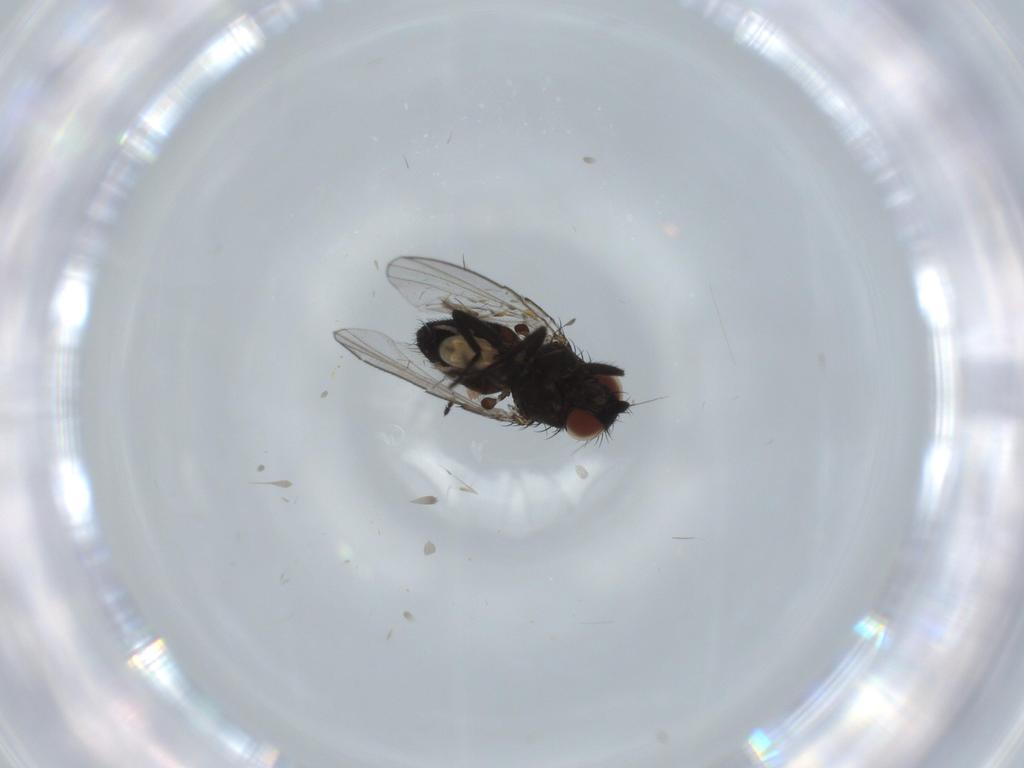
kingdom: Animalia
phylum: Arthropoda
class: Insecta
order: Diptera
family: Milichiidae
